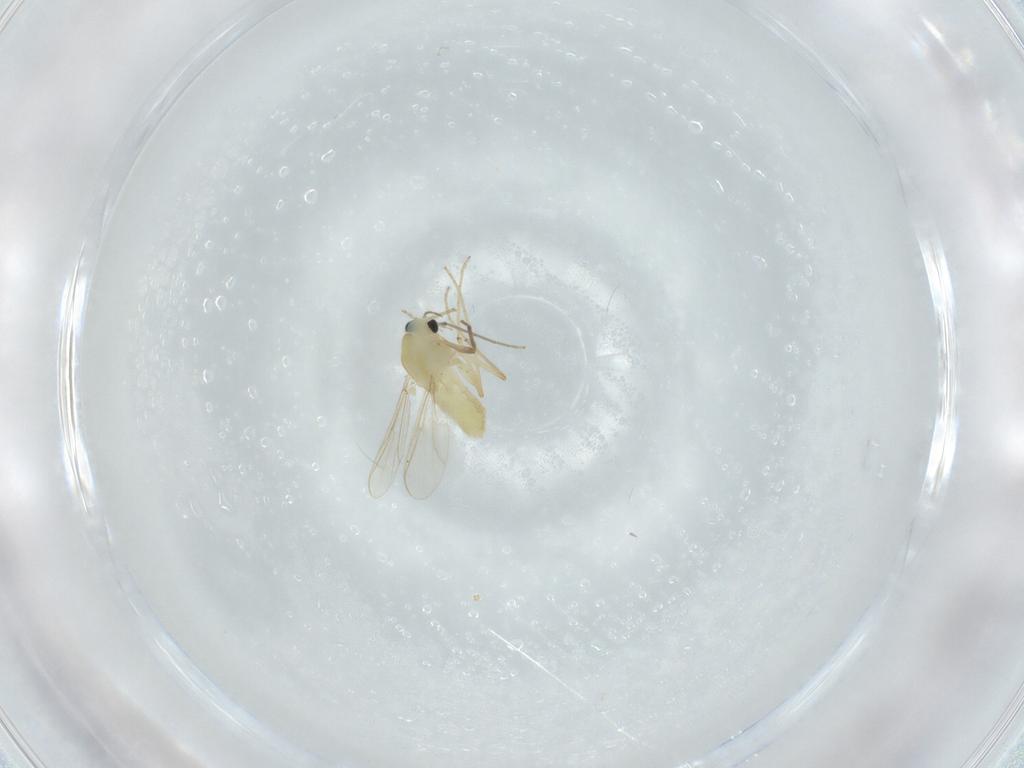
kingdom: Animalia
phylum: Arthropoda
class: Insecta
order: Diptera
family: Chironomidae
